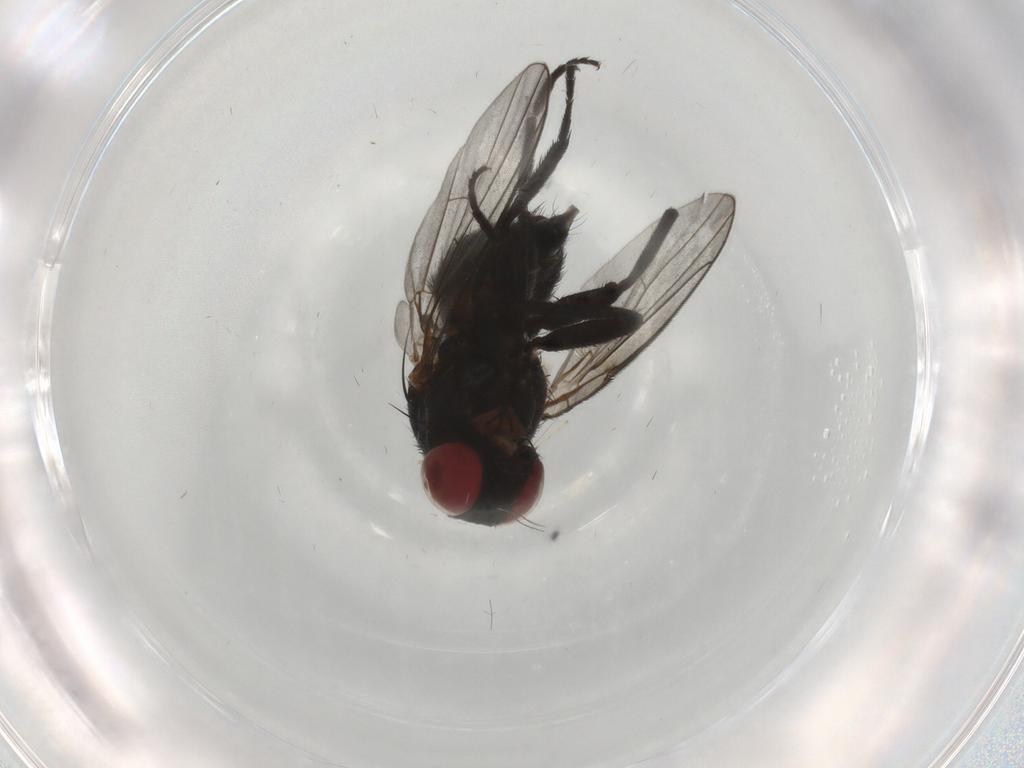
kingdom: Animalia
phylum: Arthropoda
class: Insecta
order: Diptera
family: Agromyzidae
